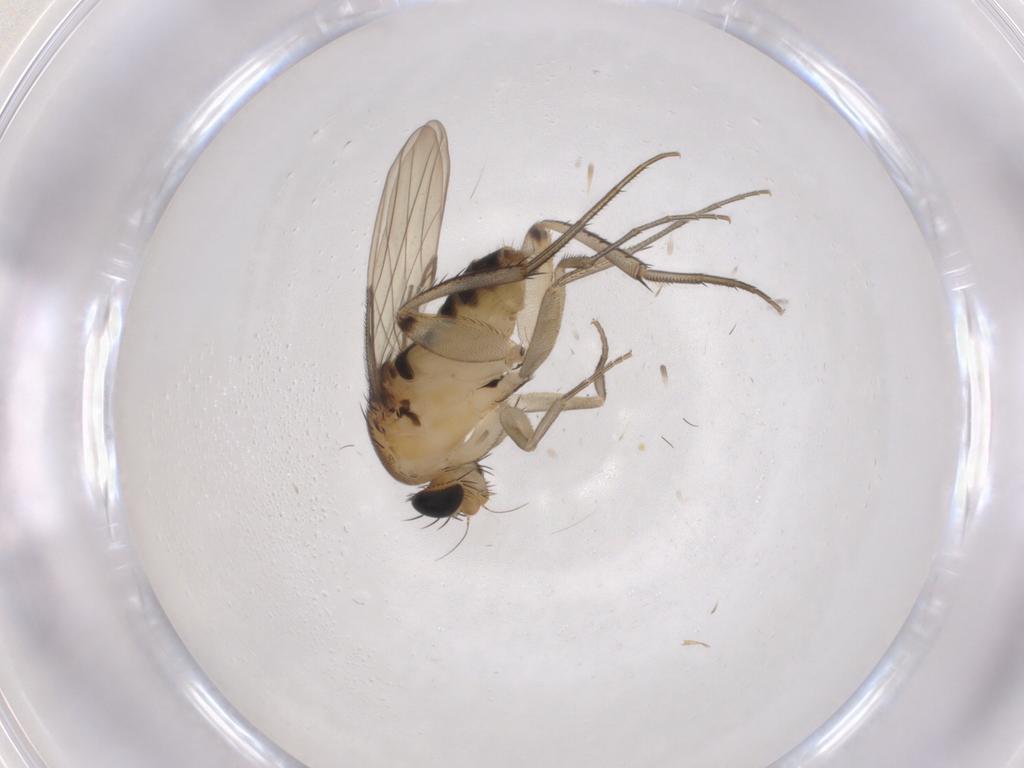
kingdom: Animalia
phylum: Arthropoda
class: Insecta
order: Diptera
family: Phoridae
